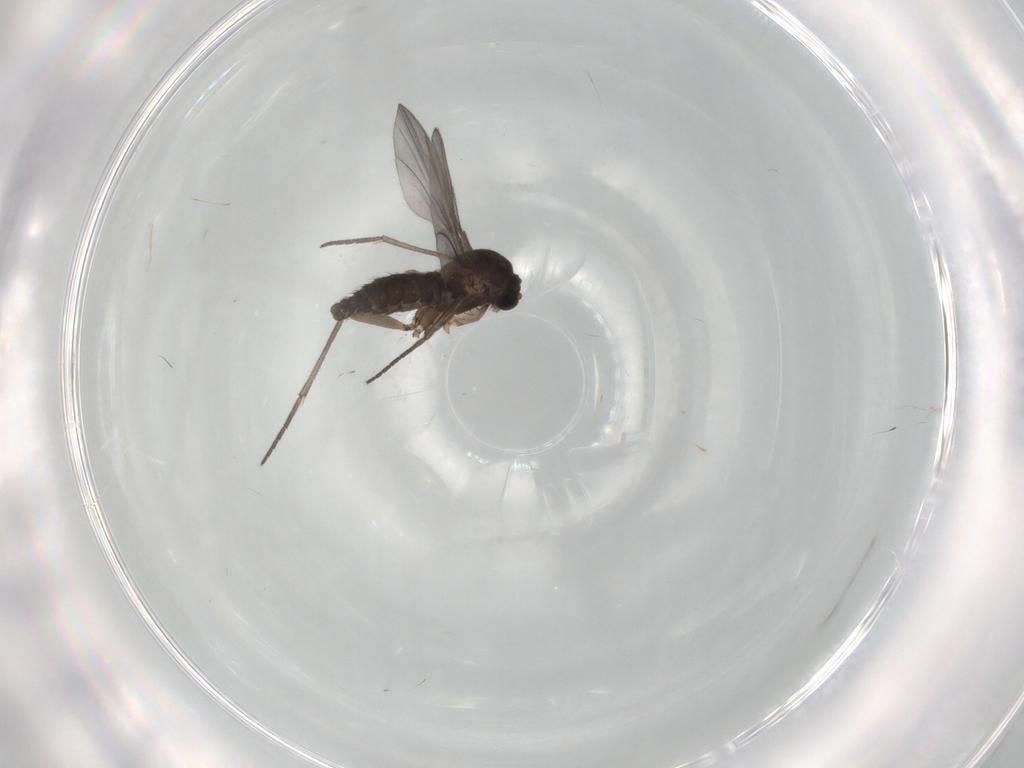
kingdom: Animalia
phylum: Arthropoda
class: Insecta
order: Diptera
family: Sciaridae
